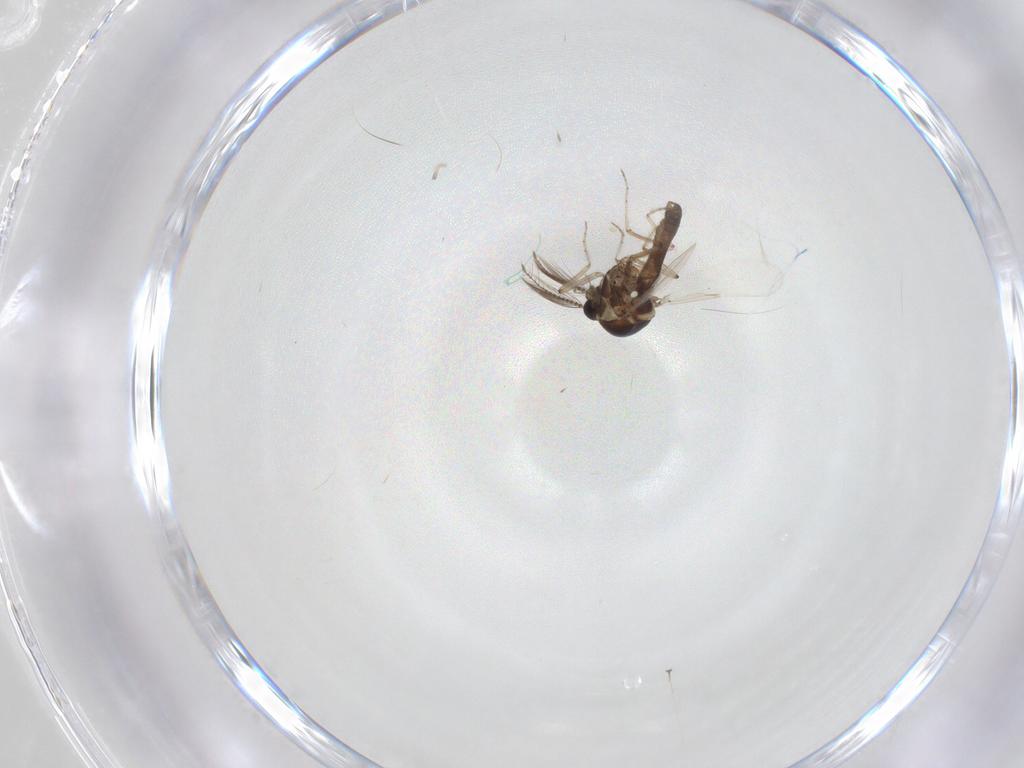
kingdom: Animalia
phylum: Arthropoda
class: Insecta
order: Diptera
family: Ceratopogonidae
